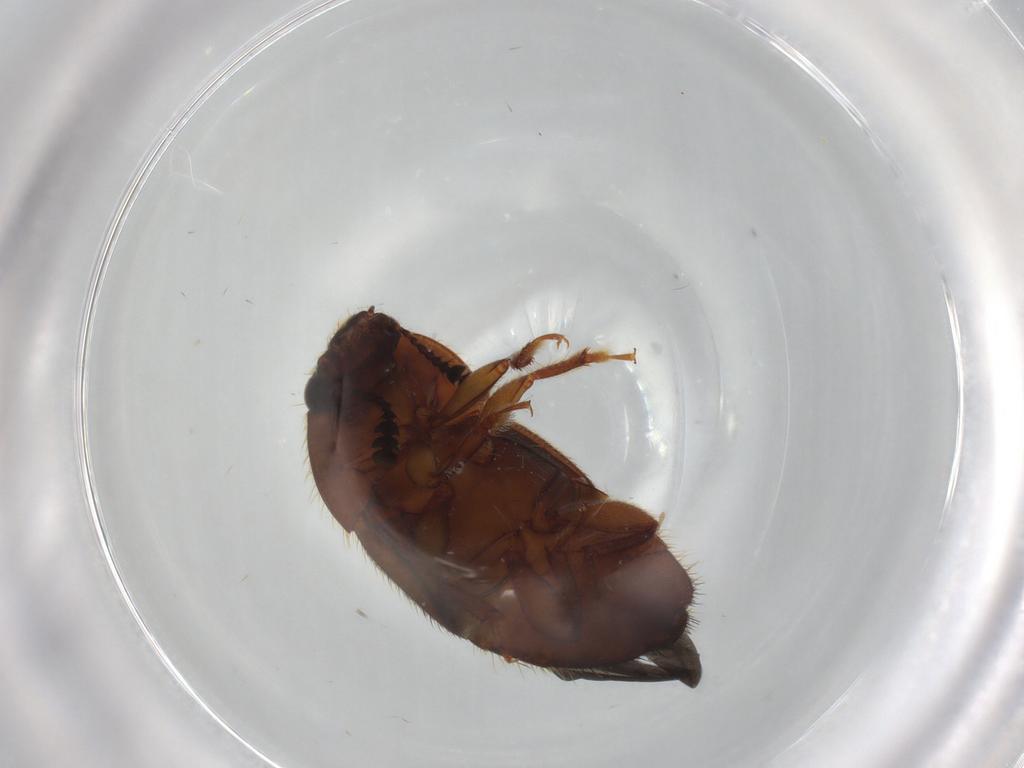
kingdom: Animalia
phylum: Arthropoda
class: Insecta
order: Coleoptera
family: Nitidulidae
